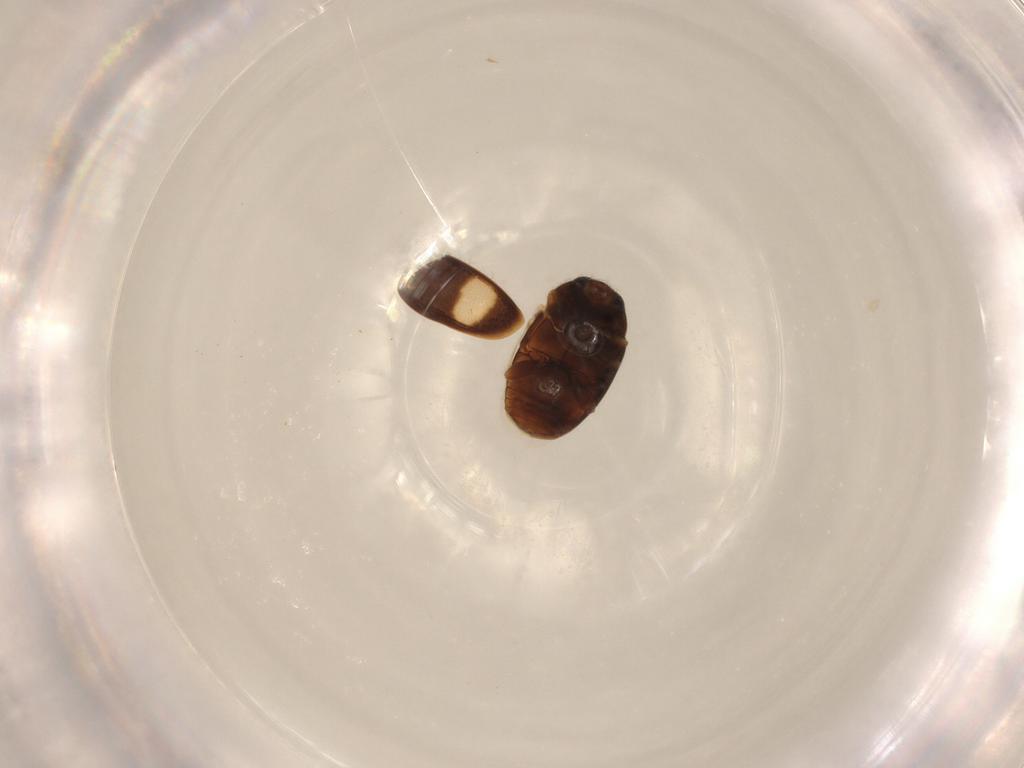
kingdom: Animalia
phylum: Arthropoda
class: Insecta
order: Coleoptera
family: Coccinellidae
